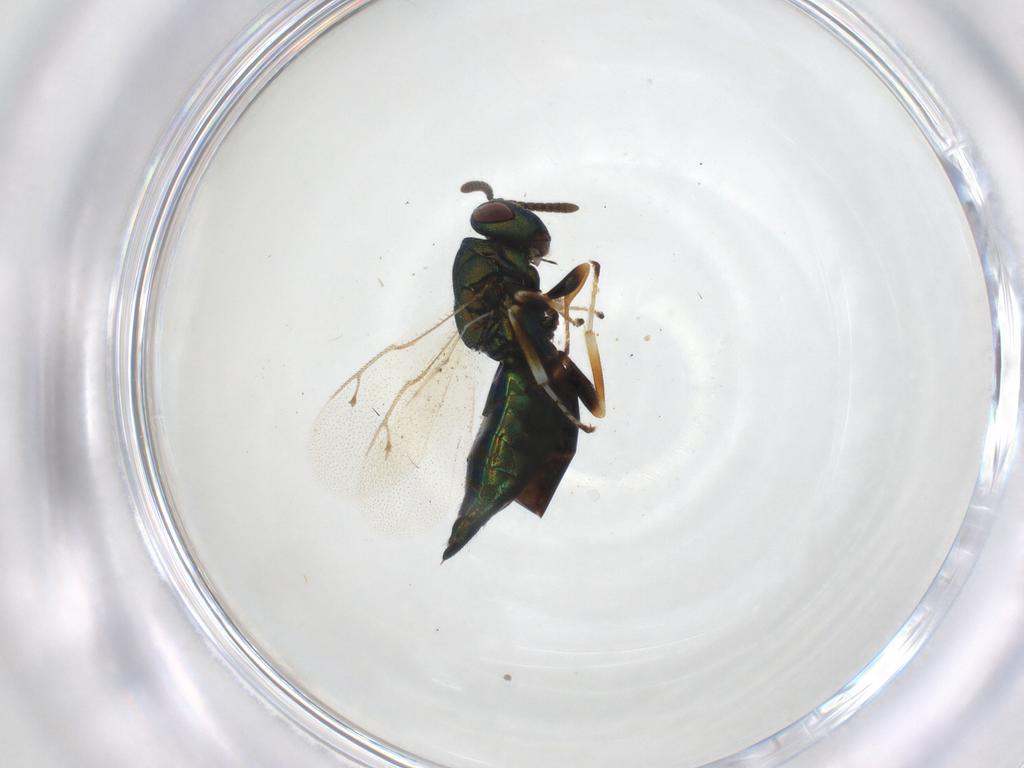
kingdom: Animalia
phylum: Arthropoda
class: Insecta
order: Hymenoptera
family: Pteromalidae
